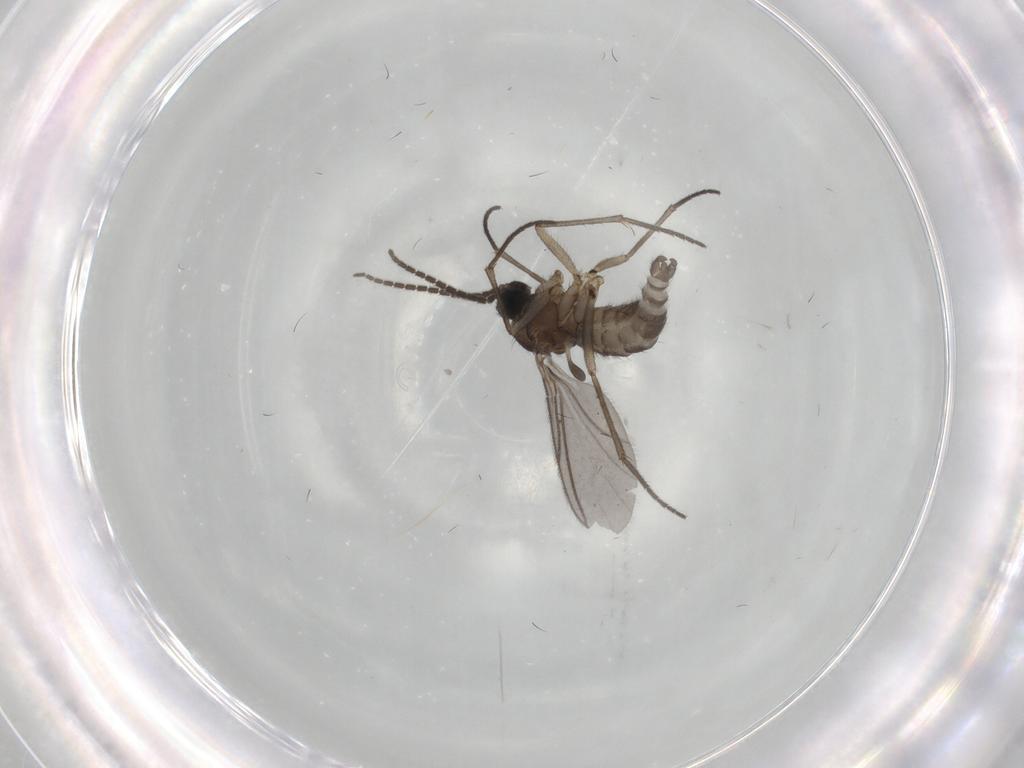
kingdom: Animalia
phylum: Arthropoda
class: Insecta
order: Diptera
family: Sciaridae
